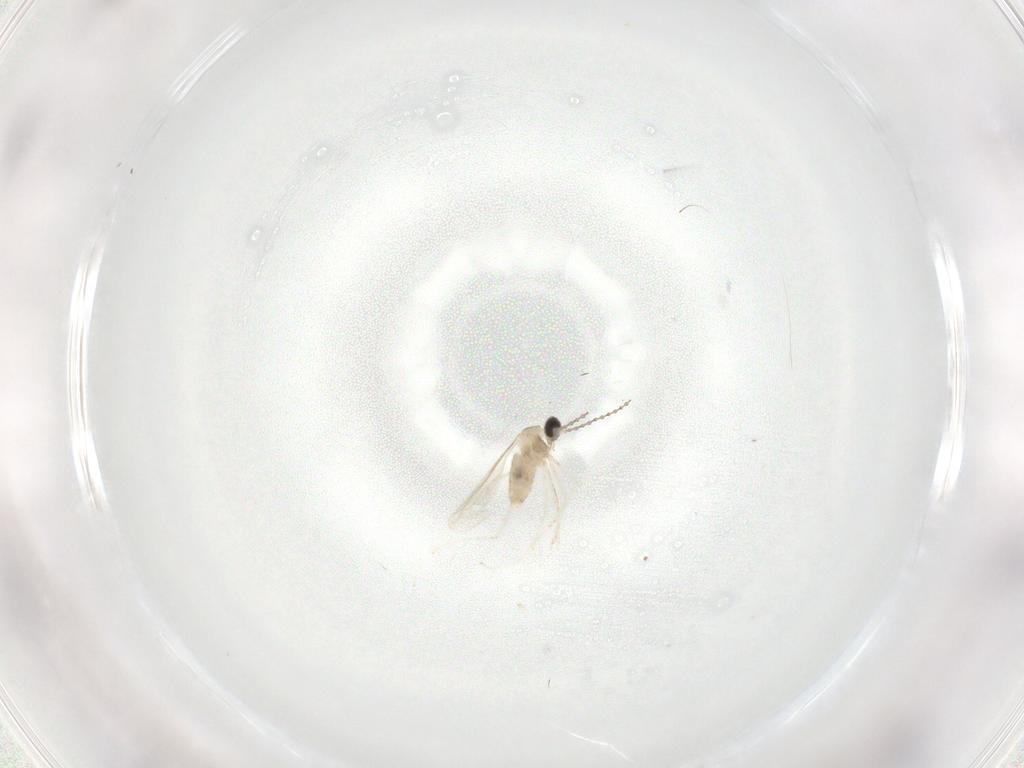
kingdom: Animalia
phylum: Arthropoda
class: Insecta
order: Diptera
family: Cecidomyiidae
